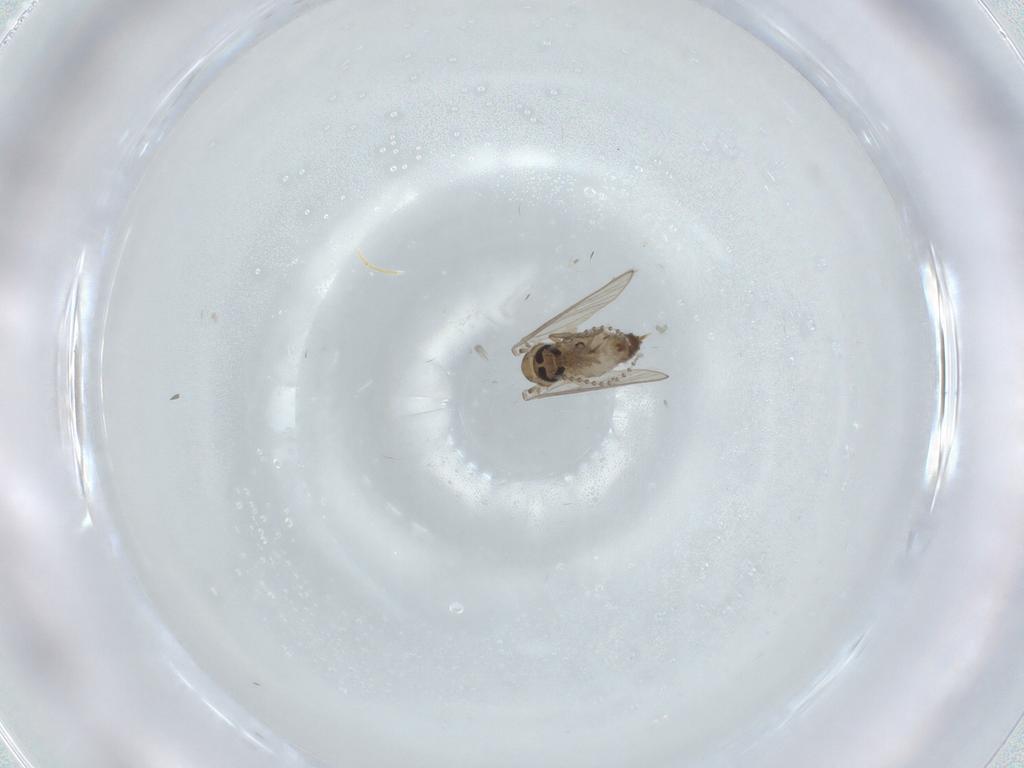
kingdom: Animalia
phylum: Arthropoda
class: Insecta
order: Diptera
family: Psychodidae
